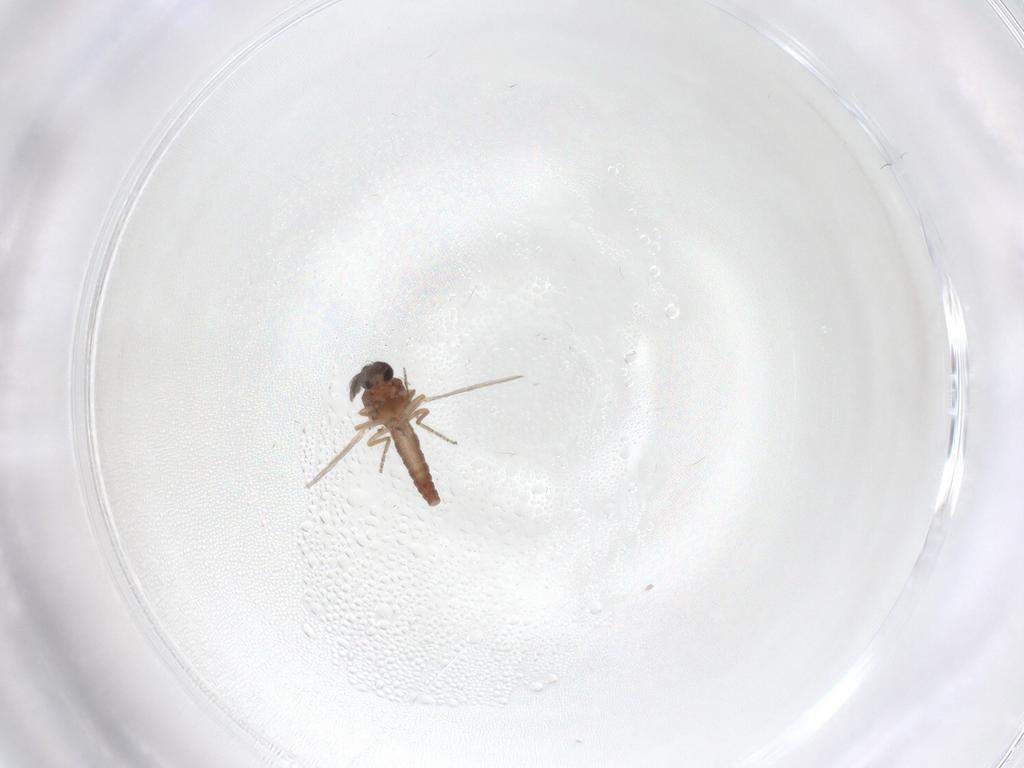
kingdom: Animalia
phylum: Arthropoda
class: Insecta
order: Diptera
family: Ceratopogonidae
